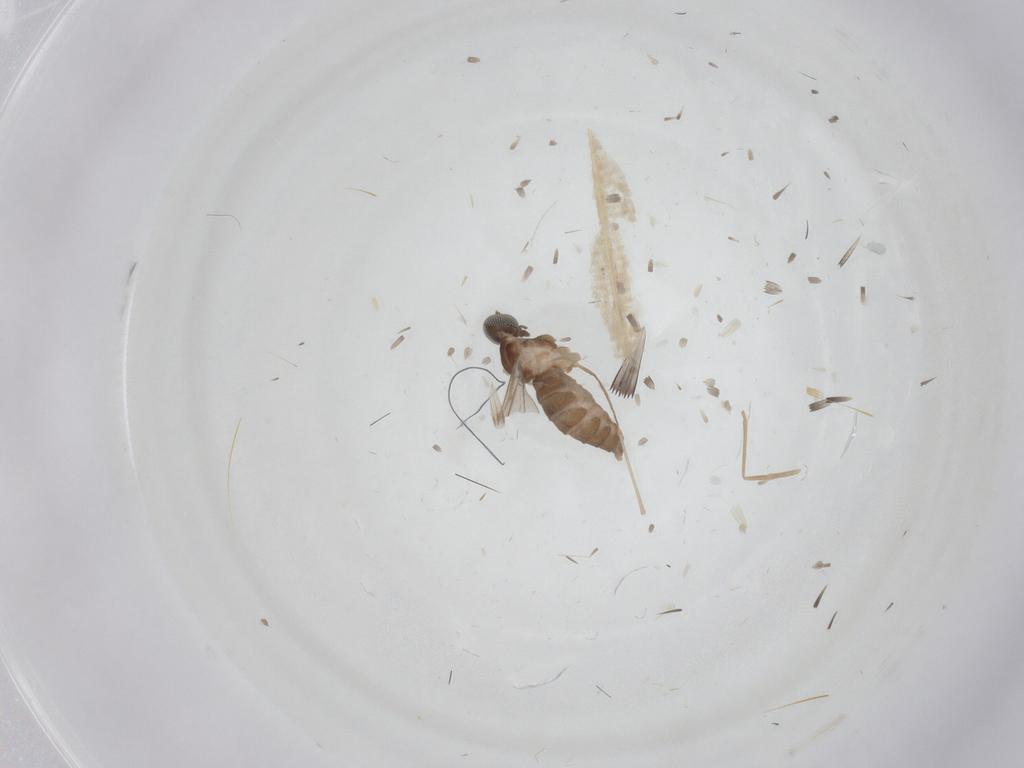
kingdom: Animalia
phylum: Arthropoda
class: Insecta
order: Diptera
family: Cecidomyiidae
